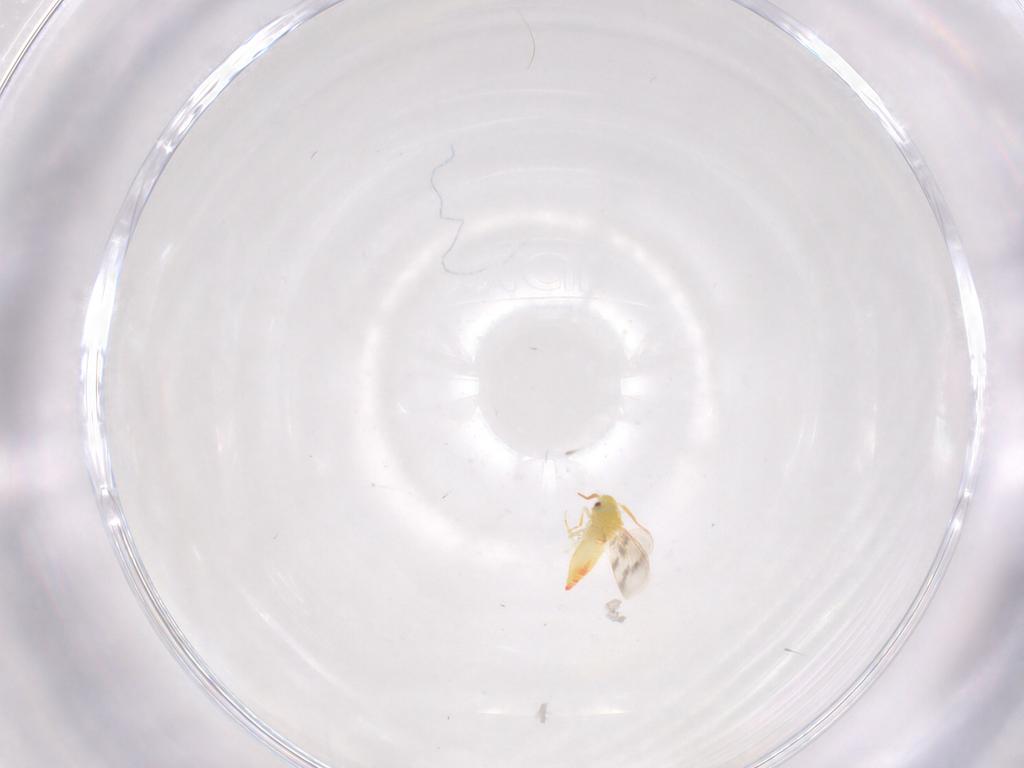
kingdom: Animalia
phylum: Arthropoda
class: Insecta
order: Hemiptera
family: Aleyrodidae
